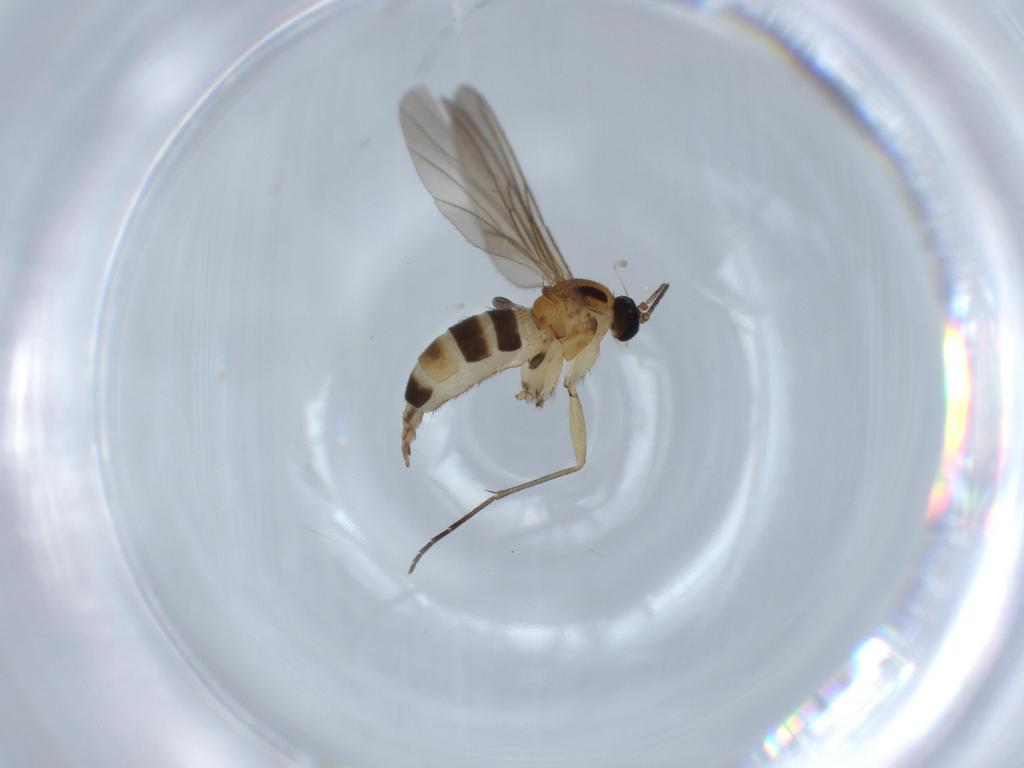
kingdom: Animalia
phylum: Arthropoda
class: Insecta
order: Diptera
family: Sciaridae
